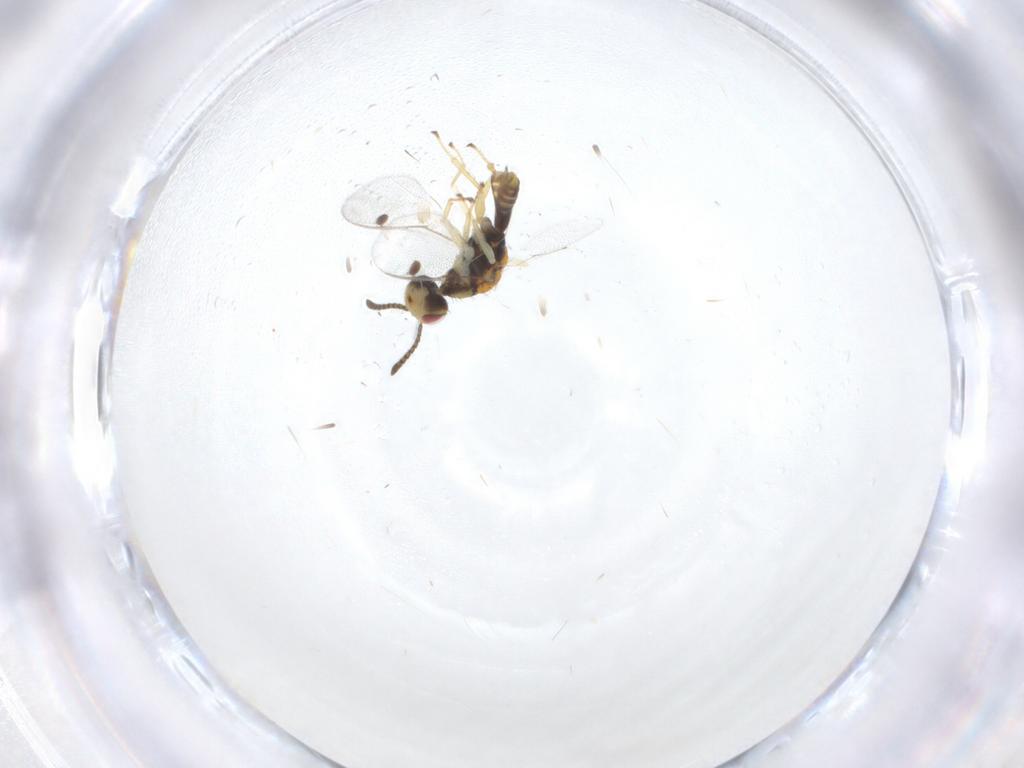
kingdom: Animalia
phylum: Arthropoda
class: Insecta
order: Hymenoptera
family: Megastigmidae
